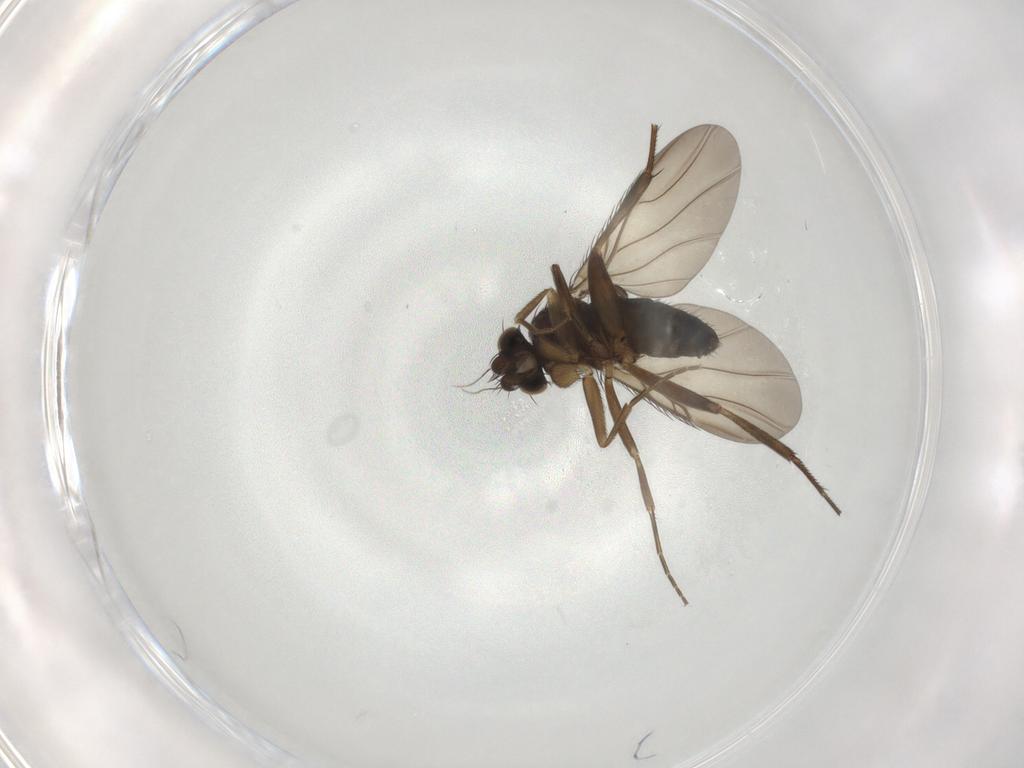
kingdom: Animalia
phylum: Arthropoda
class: Insecta
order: Diptera
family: Phoridae
